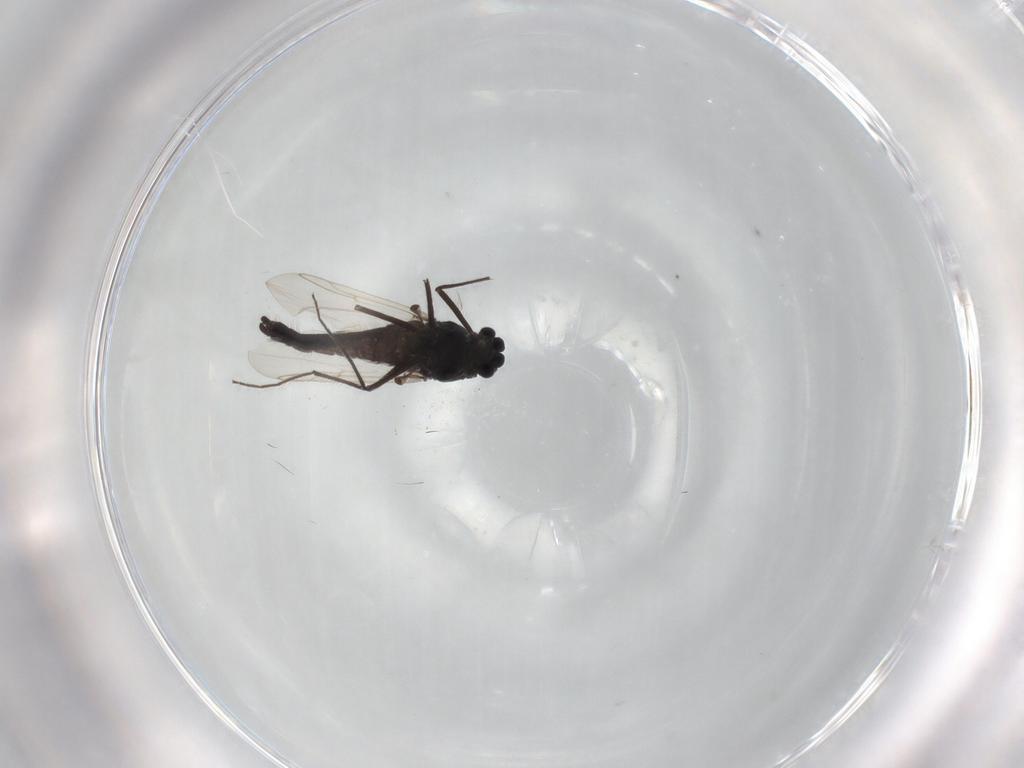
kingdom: Animalia
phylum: Arthropoda
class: Insecta
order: Diptera
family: Chironomidae
